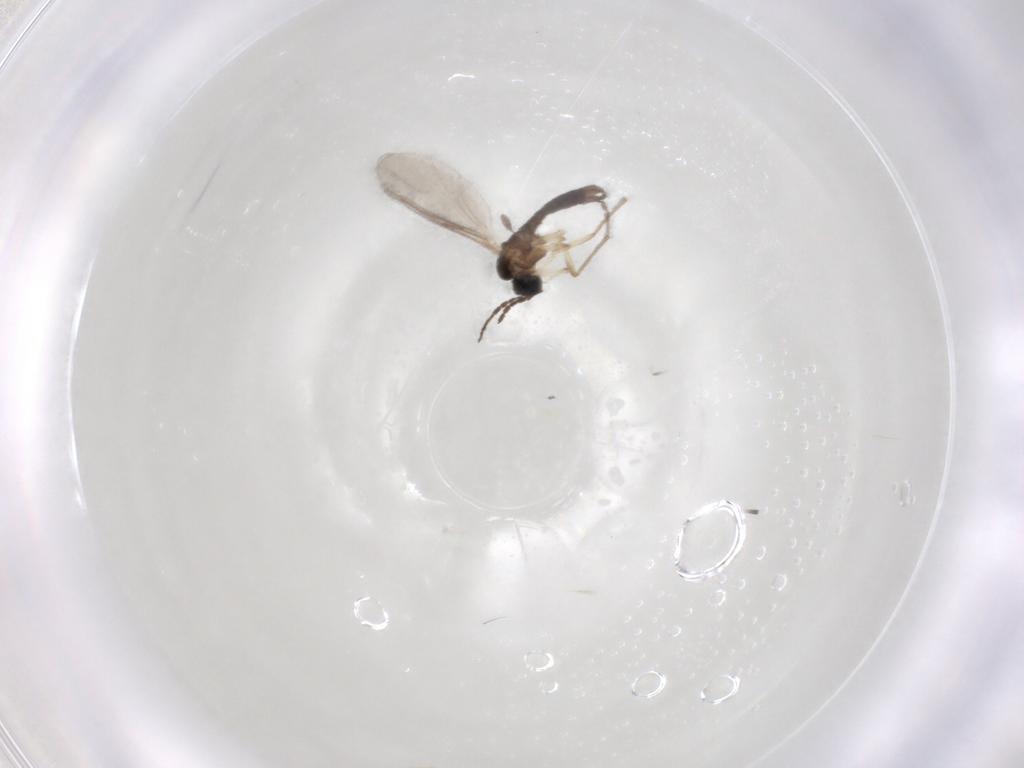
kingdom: Animalia
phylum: Arthropoda
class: Insecta
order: Diptera
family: Sciaridae
